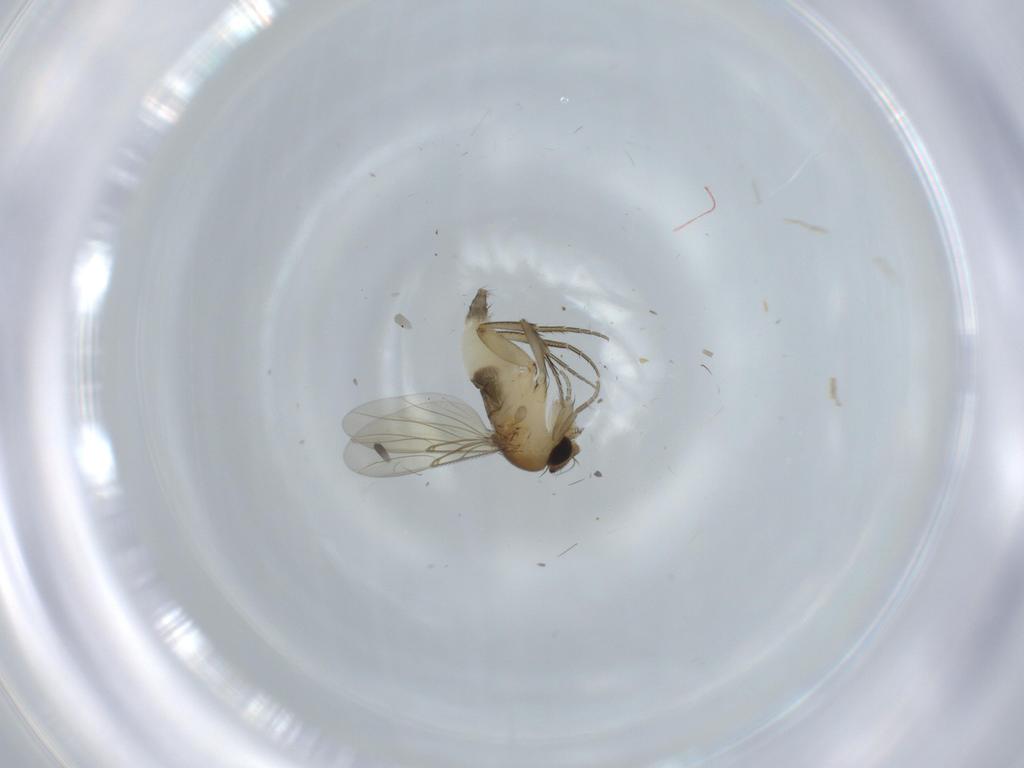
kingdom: Animalia
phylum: Arthropoda
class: Insecta
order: Diptera
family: Phoridae
